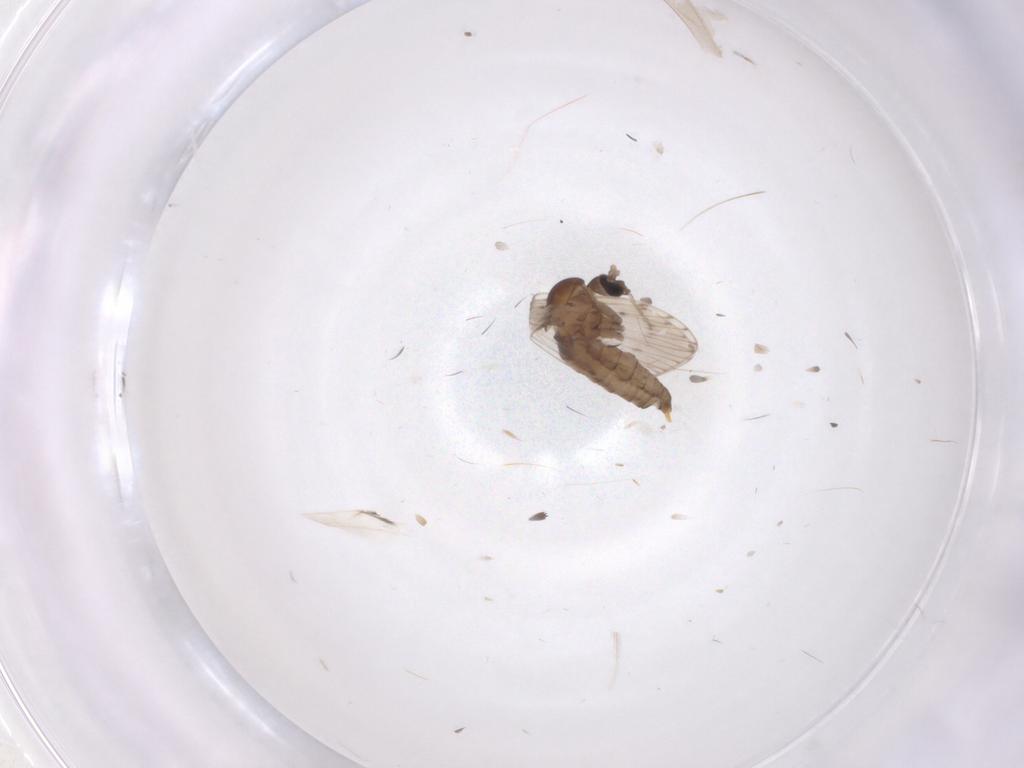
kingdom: Animalia
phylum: Arthropoda
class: Insecta
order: Diptera
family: Psychodidae
